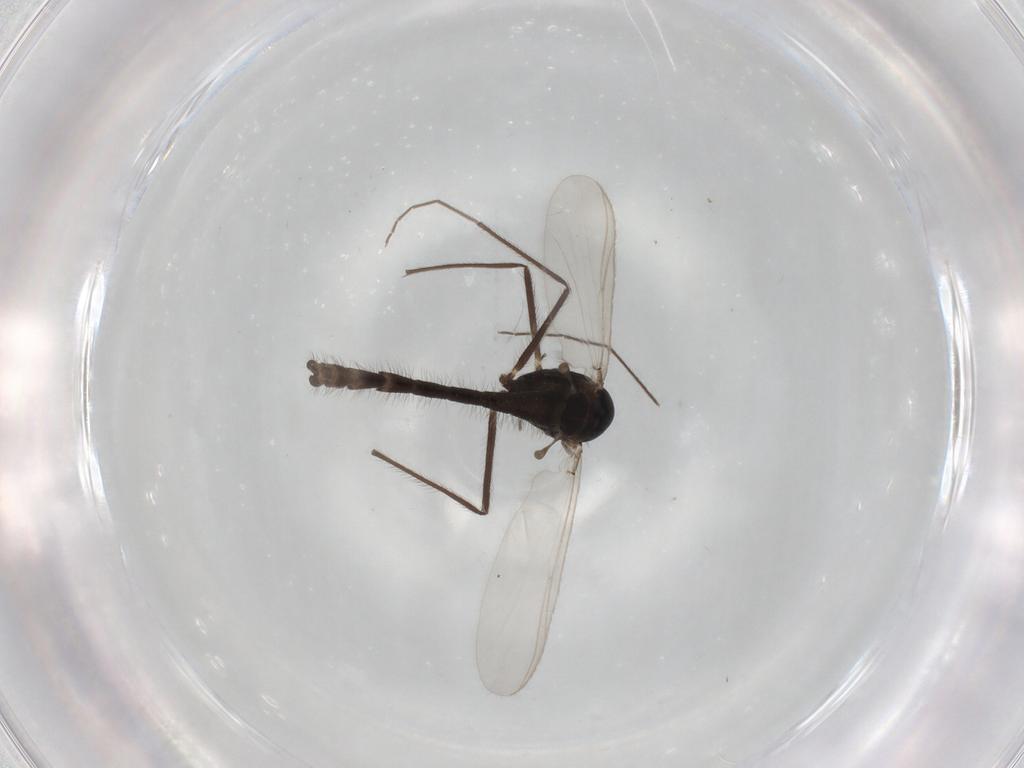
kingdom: Animalia
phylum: Arthropoda
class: Insecta
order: Diptera
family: Chironomidae
